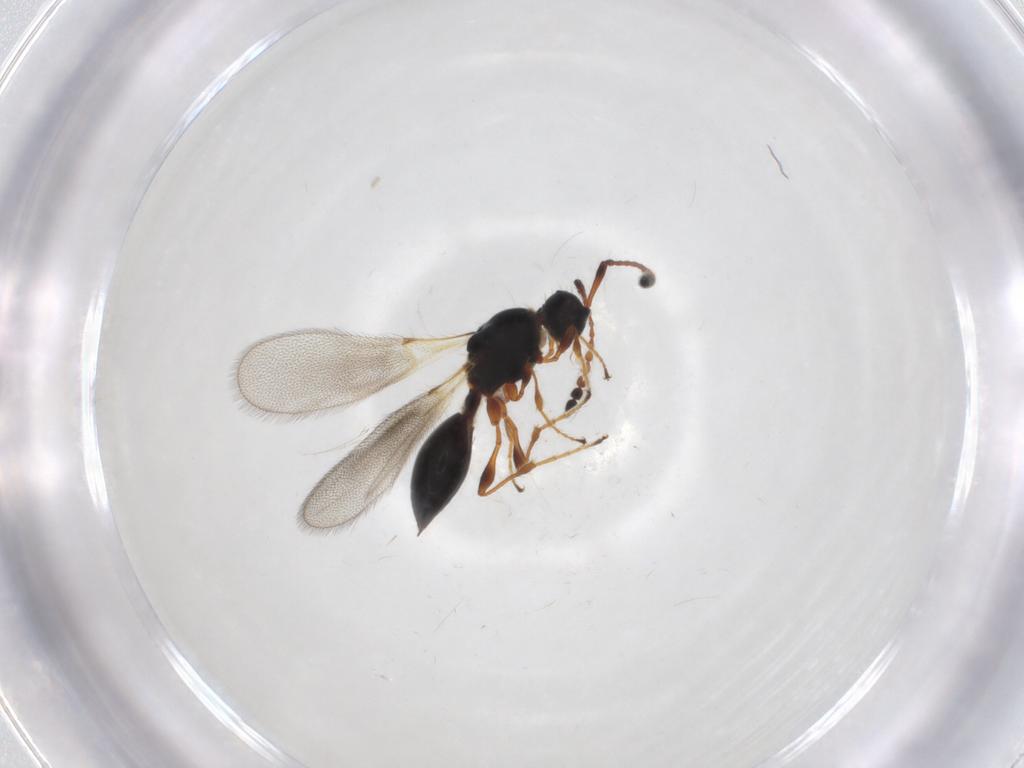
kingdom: Animalia
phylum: Arthropoda
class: Insecta
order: Hymenoptera
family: Diapriidae
